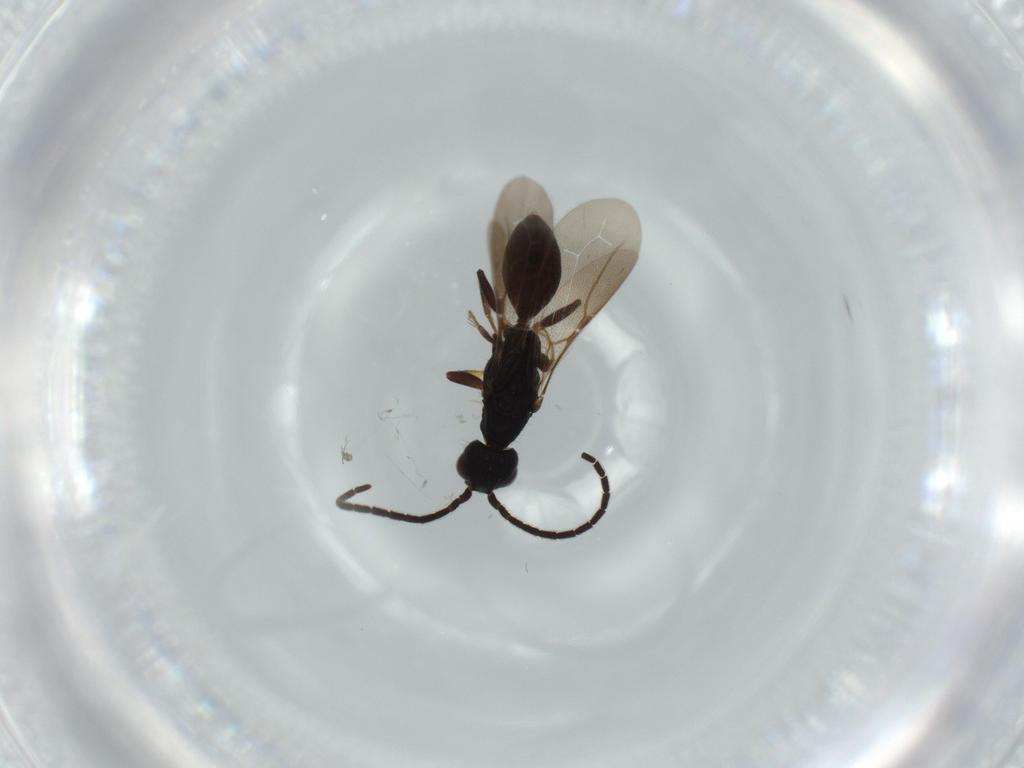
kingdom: Animalia
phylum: Arthropoda
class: Insecta
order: Hymenoptera
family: Bethylidae
